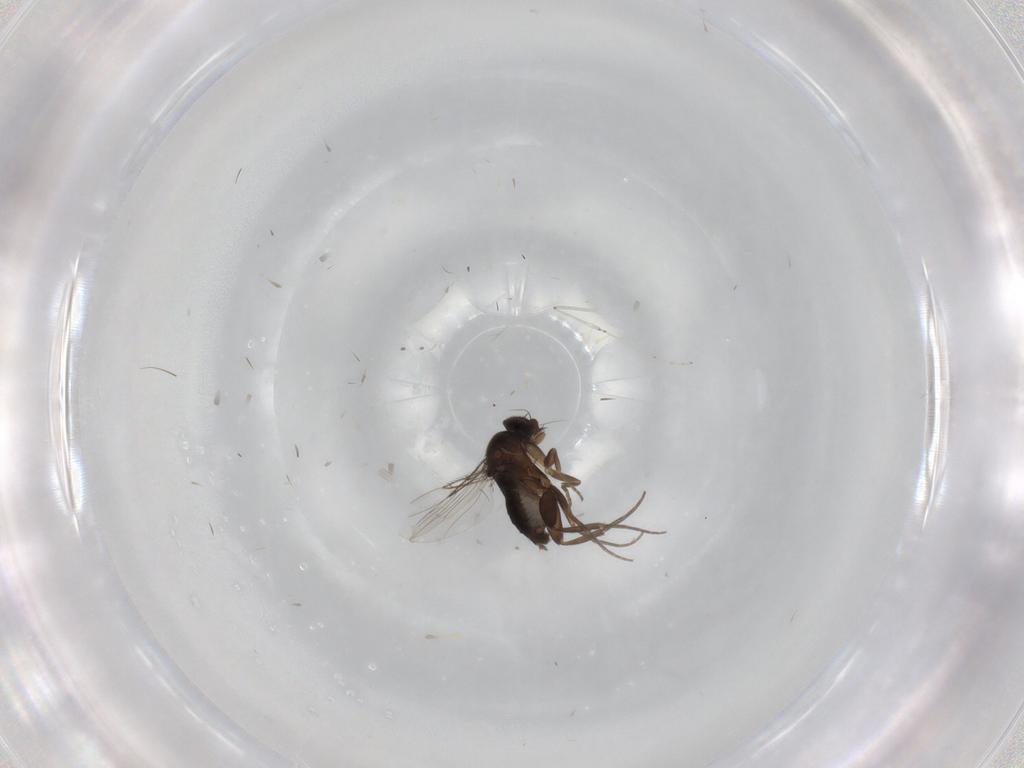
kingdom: Animalia
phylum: Arthropoda
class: Insecta
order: Diptera
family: Phoridae
